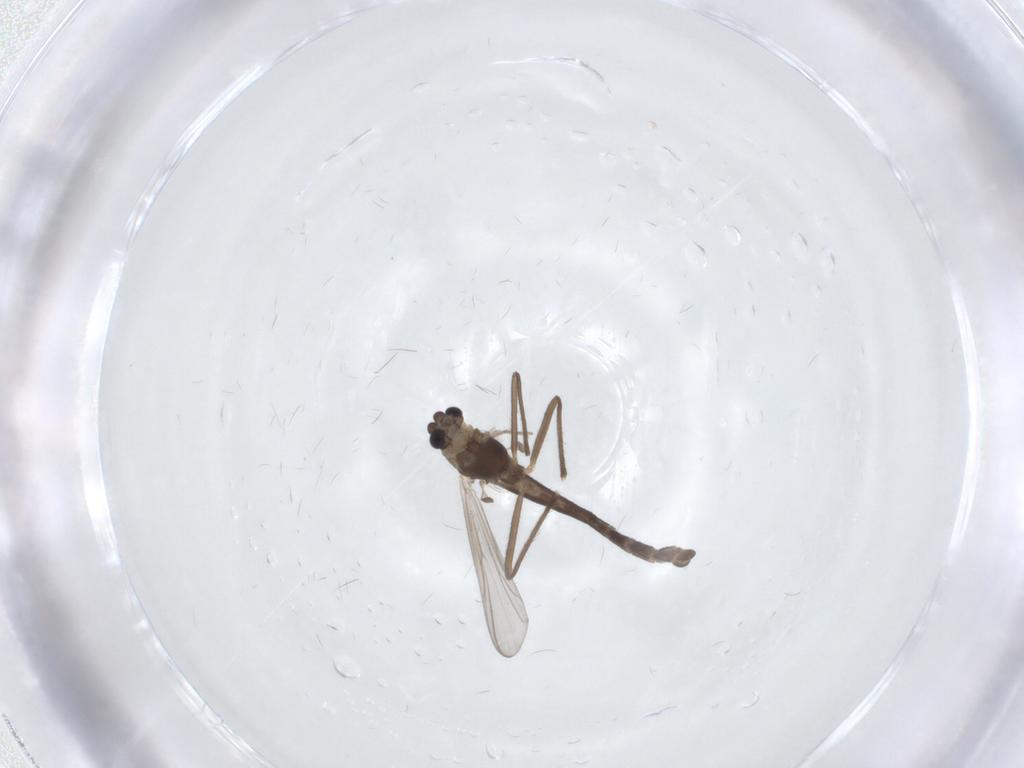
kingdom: Animalia
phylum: Arthropoda
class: Insecta
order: Diptera
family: Chironomidae
